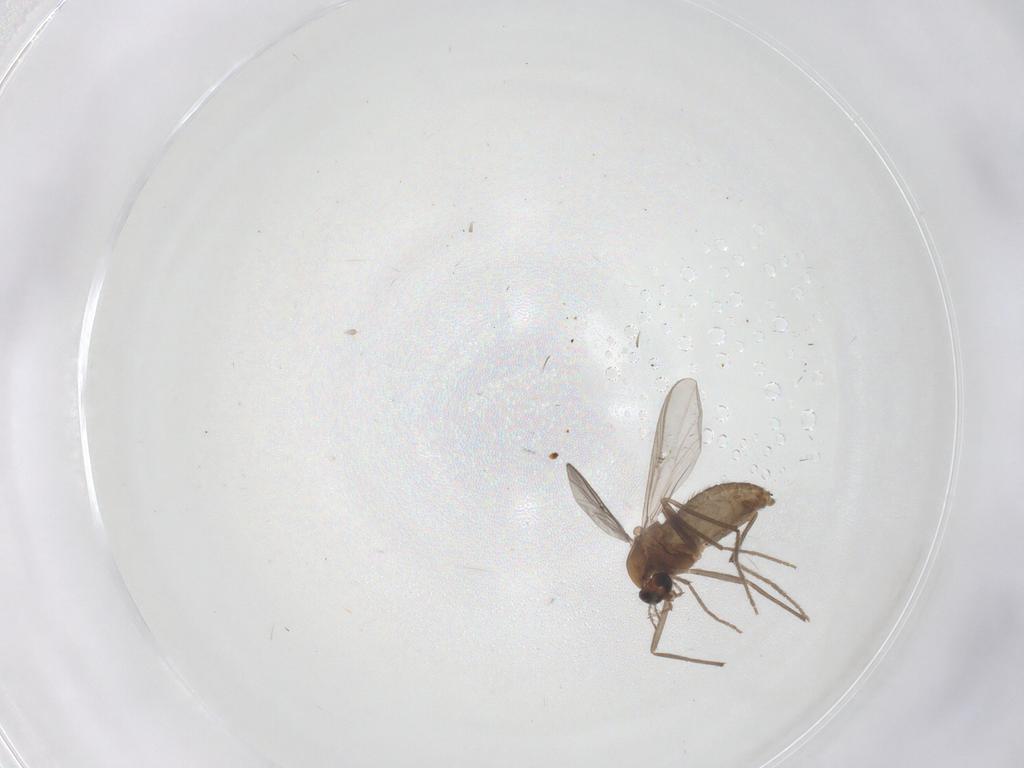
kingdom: Animalia
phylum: Arthropoda
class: Insecta
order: Diptera
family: Chironomidae
